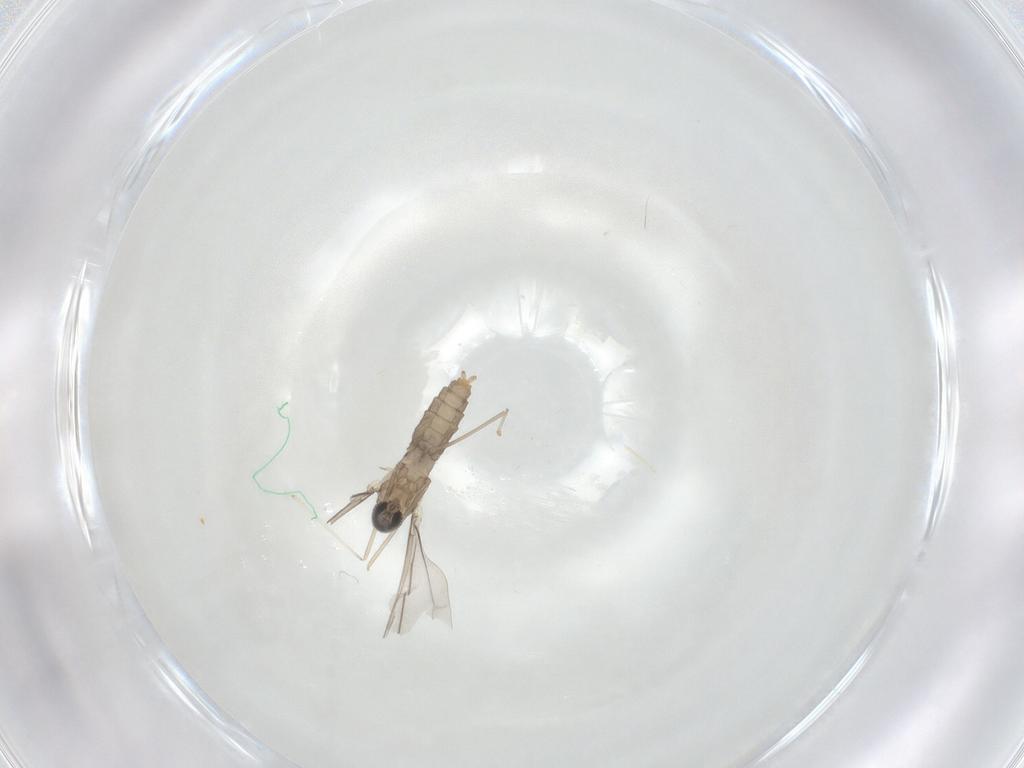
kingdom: Animalia
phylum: Arthropoda
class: Insecta
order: Diptera
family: Cecidomyiidae
